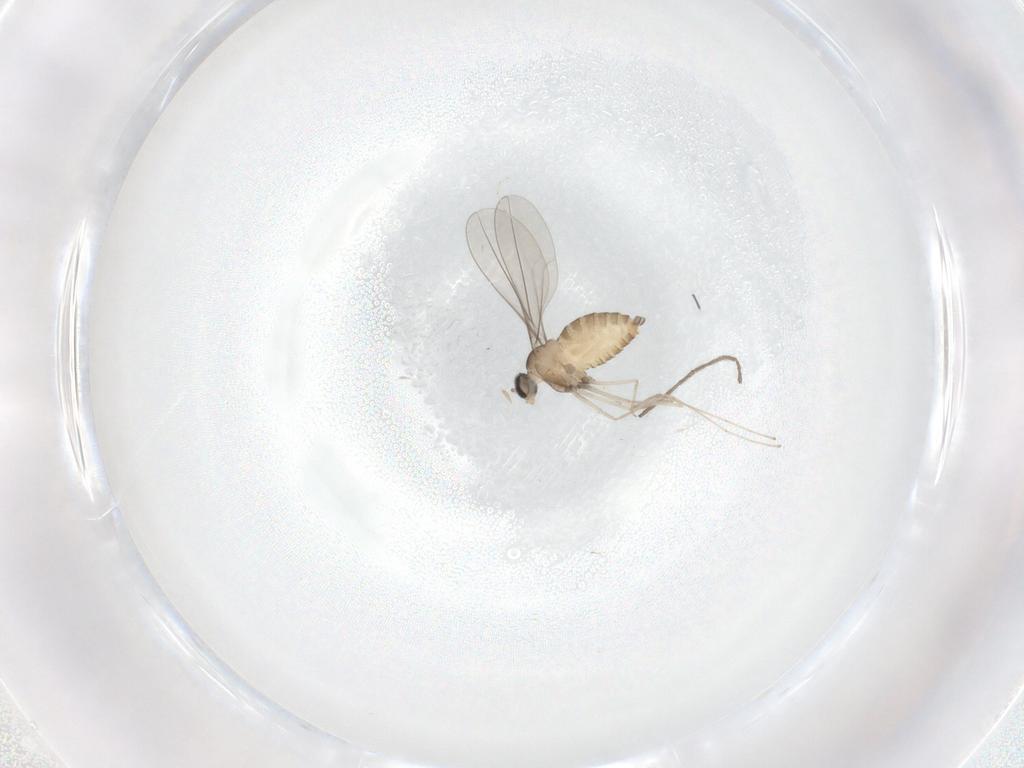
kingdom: Animalia
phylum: Arthropoda
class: Insecta
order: Diptera
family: Cecidomyiidae
